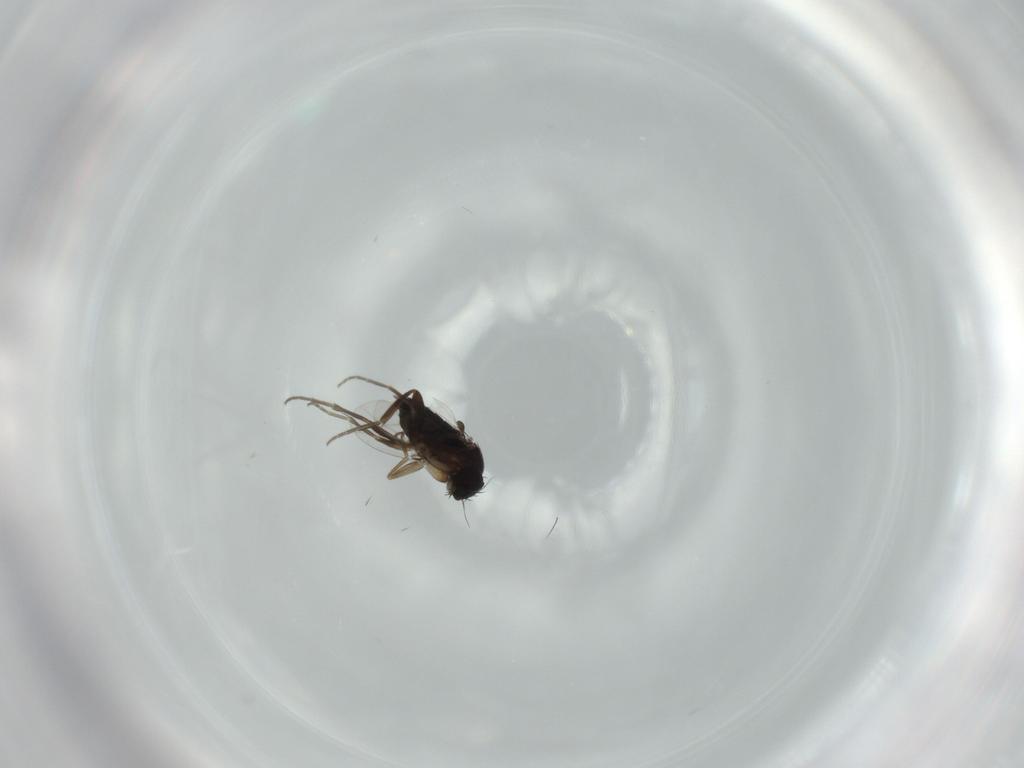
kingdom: Animalia
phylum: Arthropoda
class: Insecta
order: Diptera
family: Phoridae
